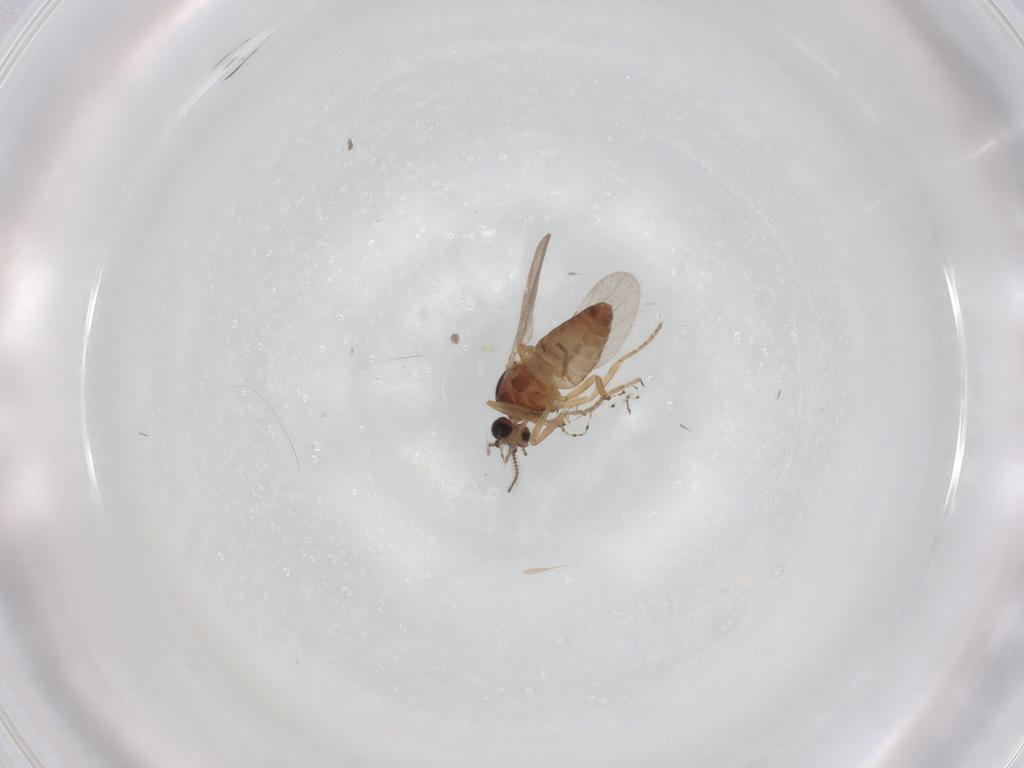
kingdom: Animalia
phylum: Arthropoda
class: Insecta
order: Diptera
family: Ceratopogonidae
